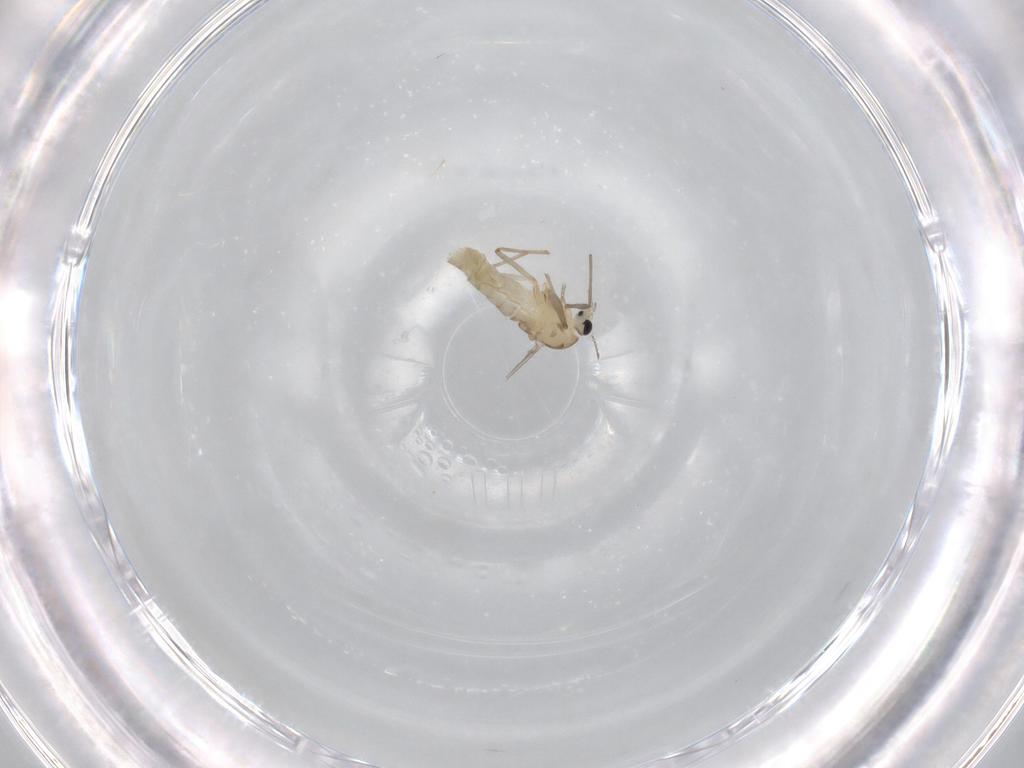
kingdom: Animalia
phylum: Arthropoda
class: Insecta
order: Diptera
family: Chironomidae
